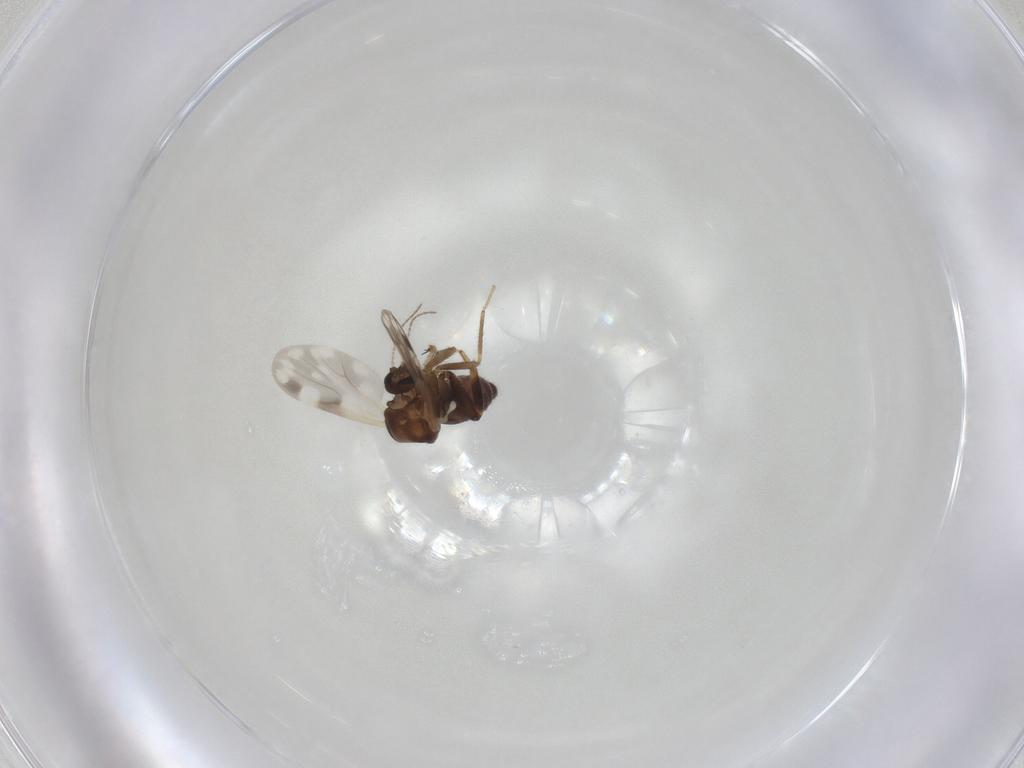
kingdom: Animalia
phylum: Arthropoda
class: Insecta
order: Diptera
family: Ceratopogonidae
